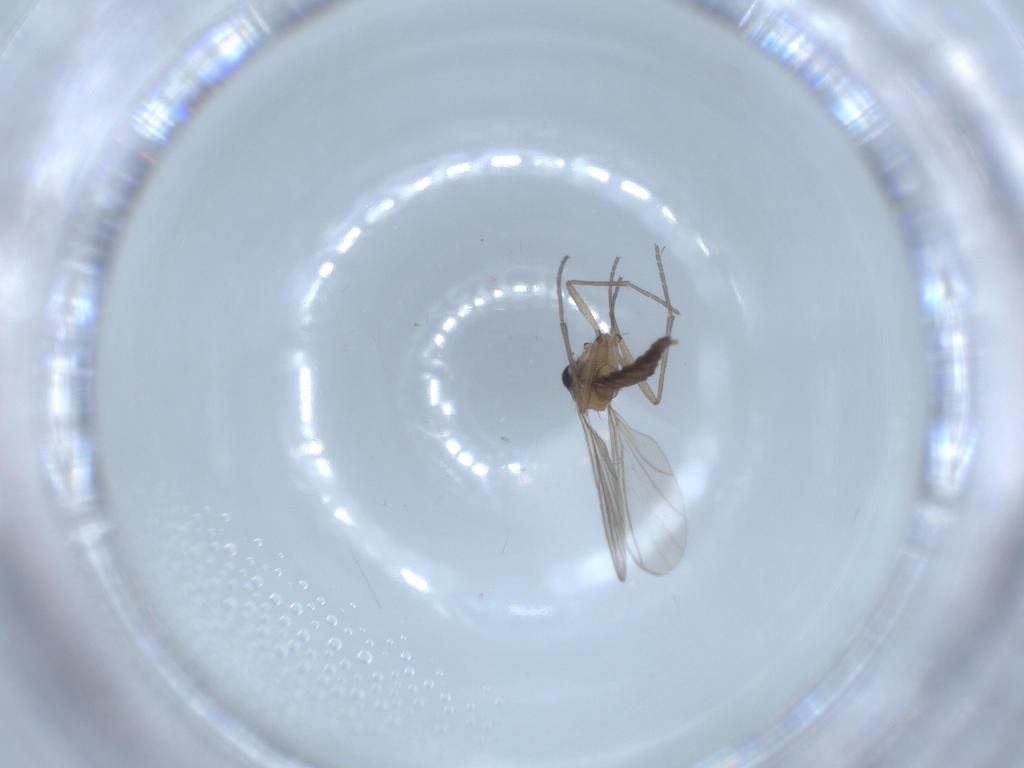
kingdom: Animalia
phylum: Arthropoda
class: Insecta
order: Diptera
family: Sciaridae
